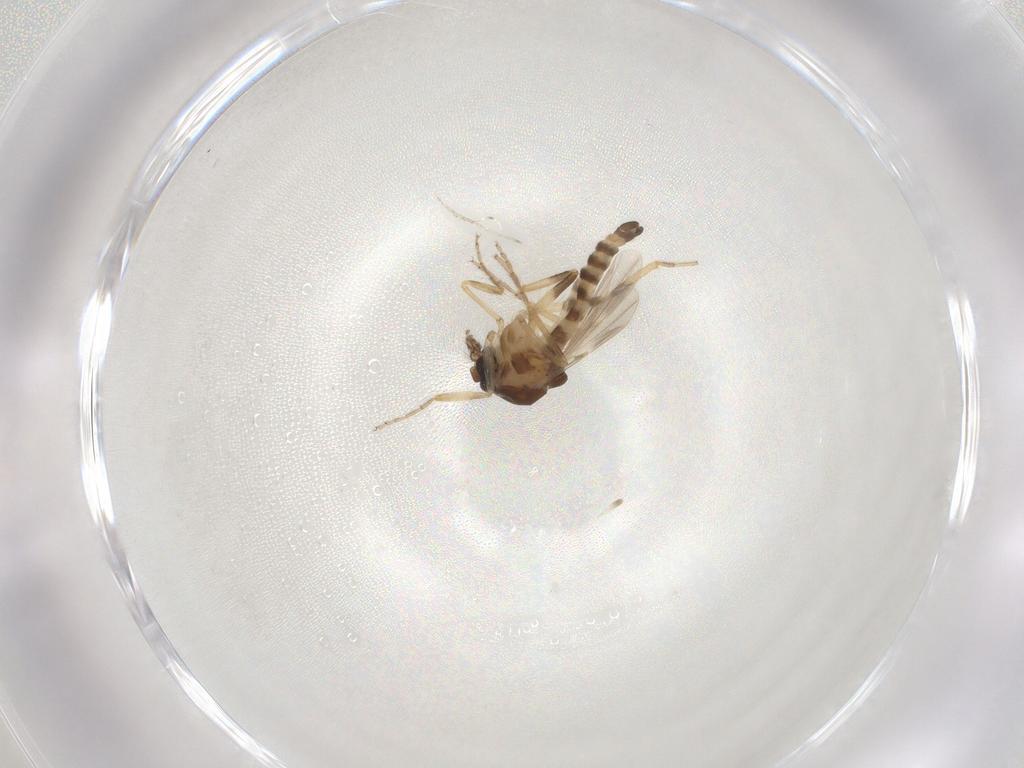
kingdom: Animalia
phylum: Arthropoda
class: Insecta
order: Diptera
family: Ceratopogonidae
